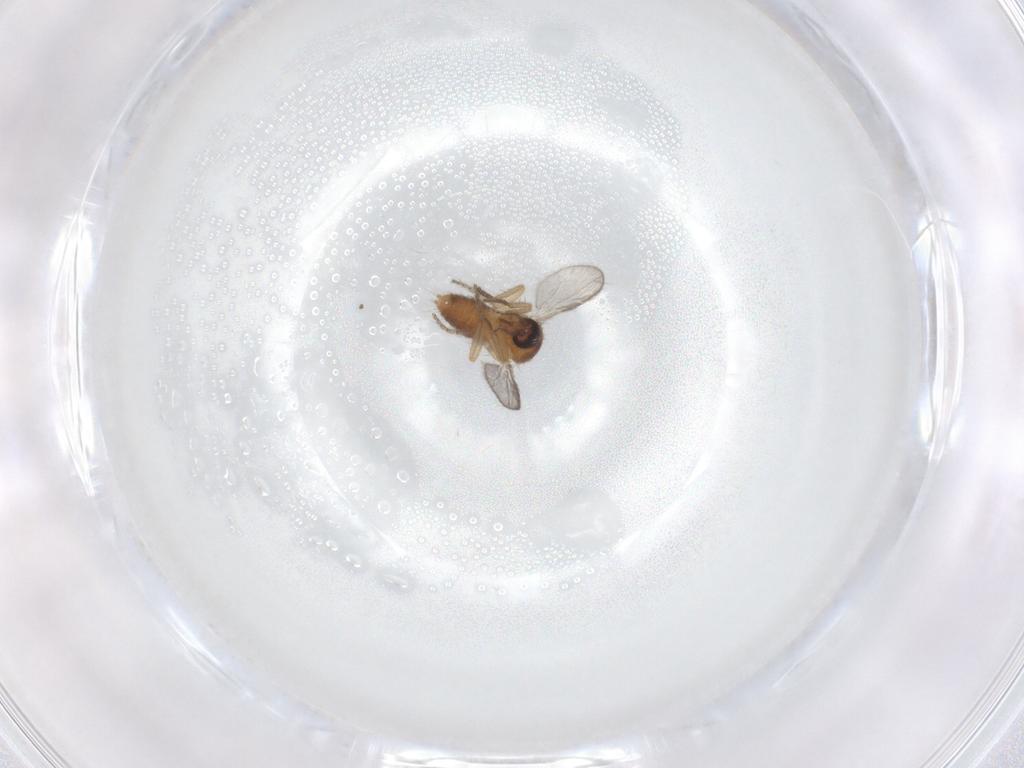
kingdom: Animalia
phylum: Arthropoda
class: Insecta
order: Diptera
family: Ceratopogonidae
